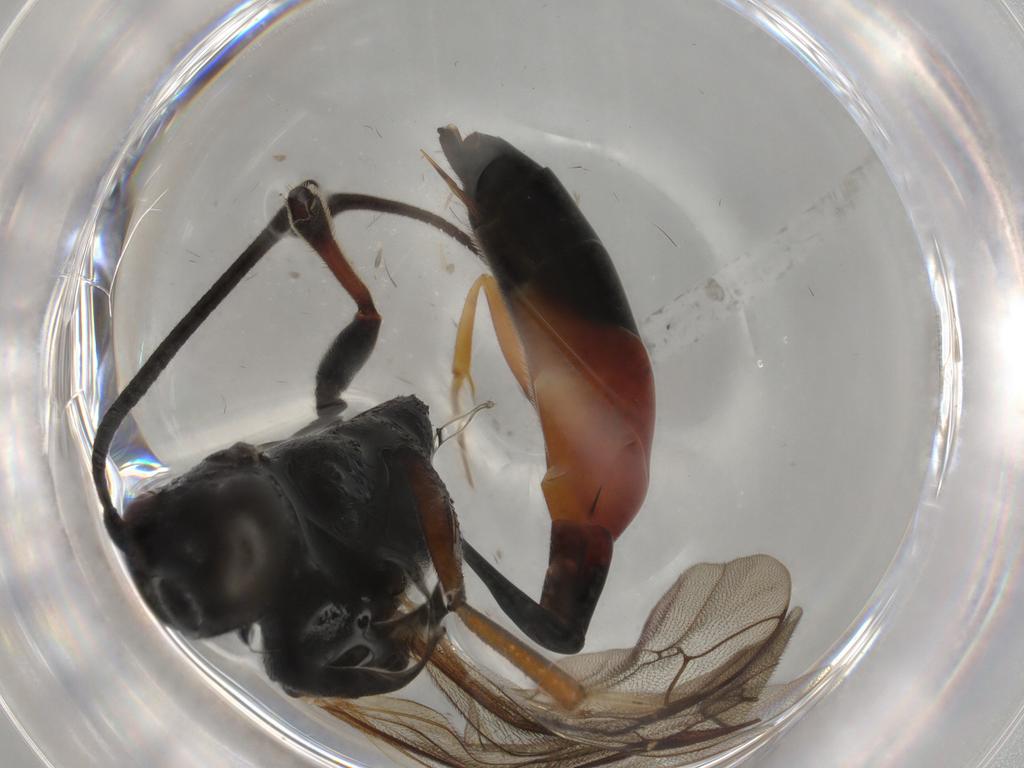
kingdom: Animalia
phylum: Arthropoda
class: Insecta
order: Hymenoptera
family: Ichneumonidae
